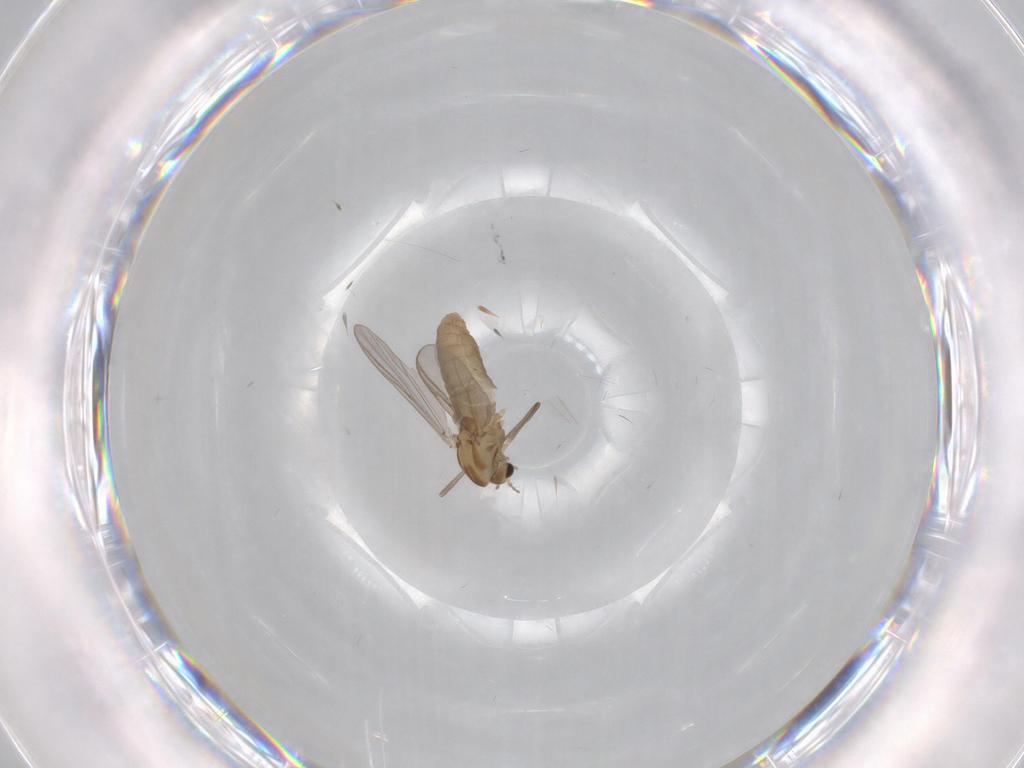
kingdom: Animalia
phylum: Arthropoda
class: Insecta
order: Diptera
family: Chironomidae
